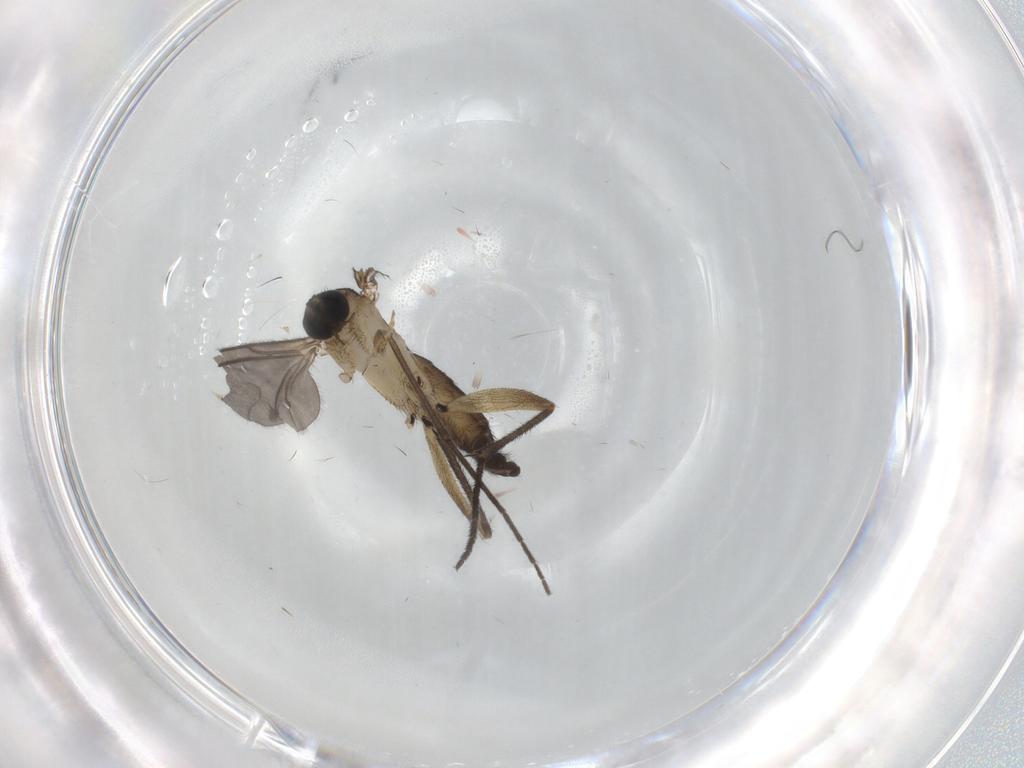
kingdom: Animalia
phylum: Arthropoda
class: Insecta
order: Diptera
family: Sciaridae
